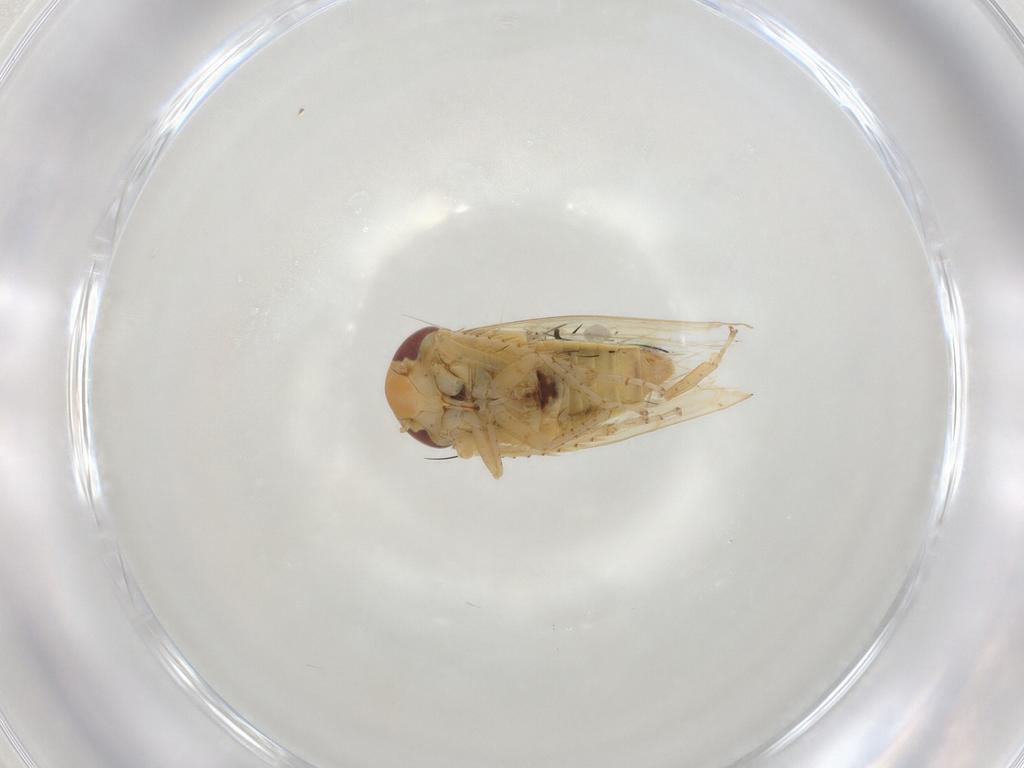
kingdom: Animalia
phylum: Arthropoda
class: Insecta
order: Hemiptera
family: Cicadellidae
